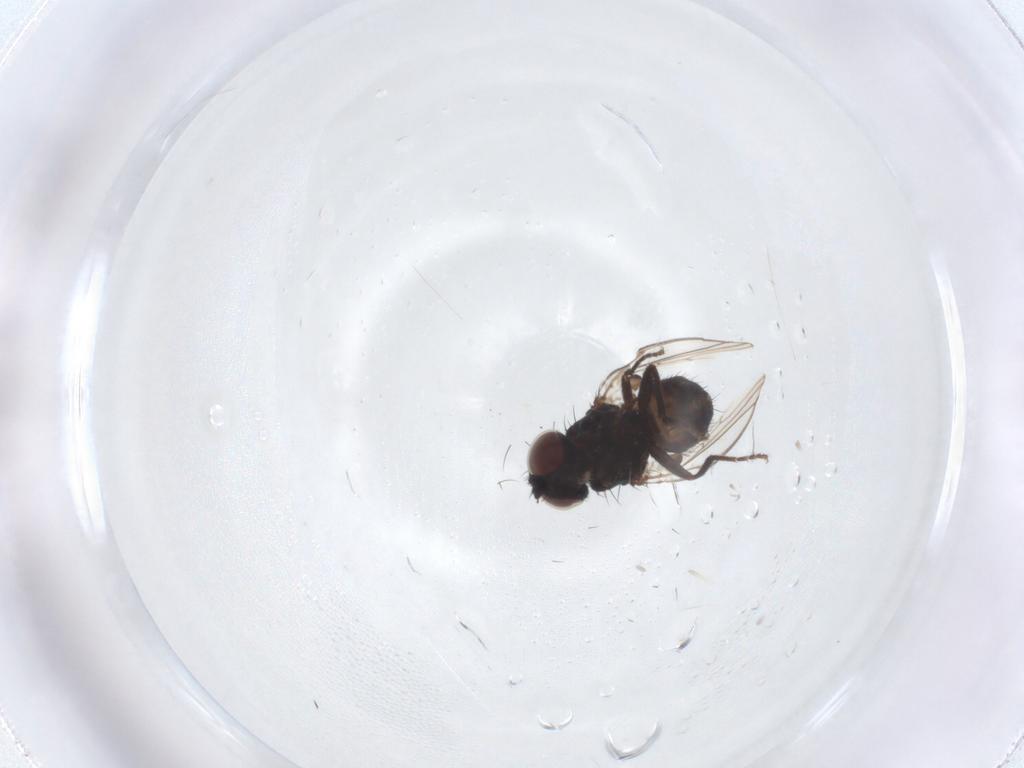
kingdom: Animalia
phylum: Arthropoda
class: Insecta
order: Diptera
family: Milichiidae
